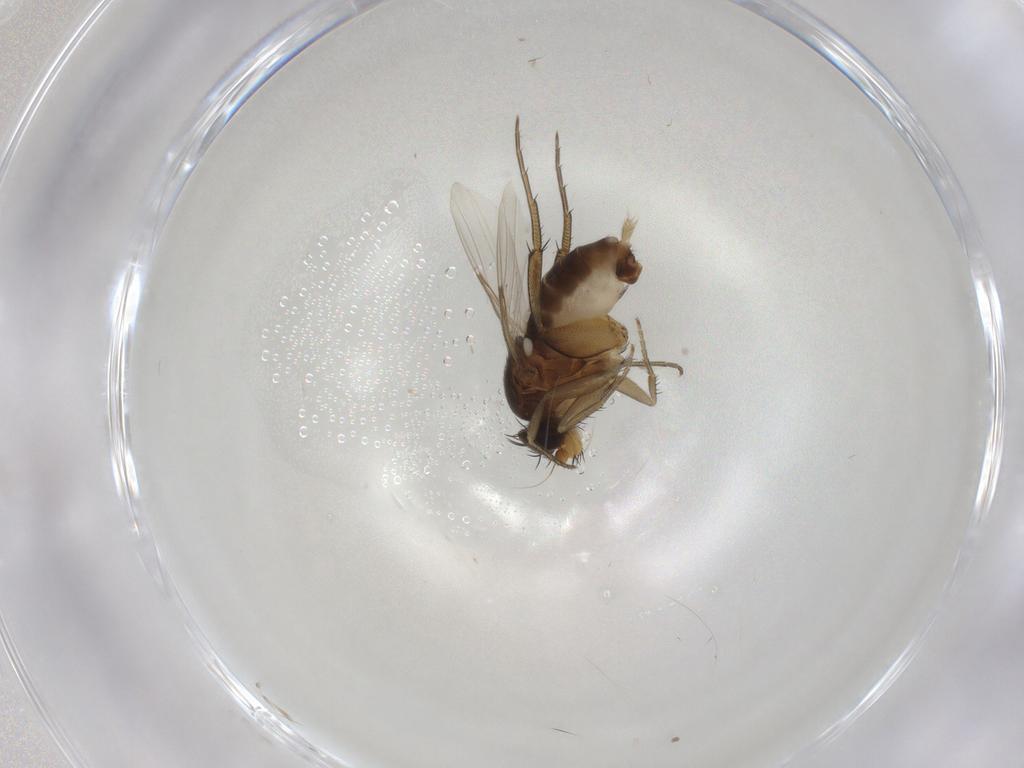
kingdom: Animalia
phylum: Arthropoda
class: Insecta
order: Diptera
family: Phoridae
